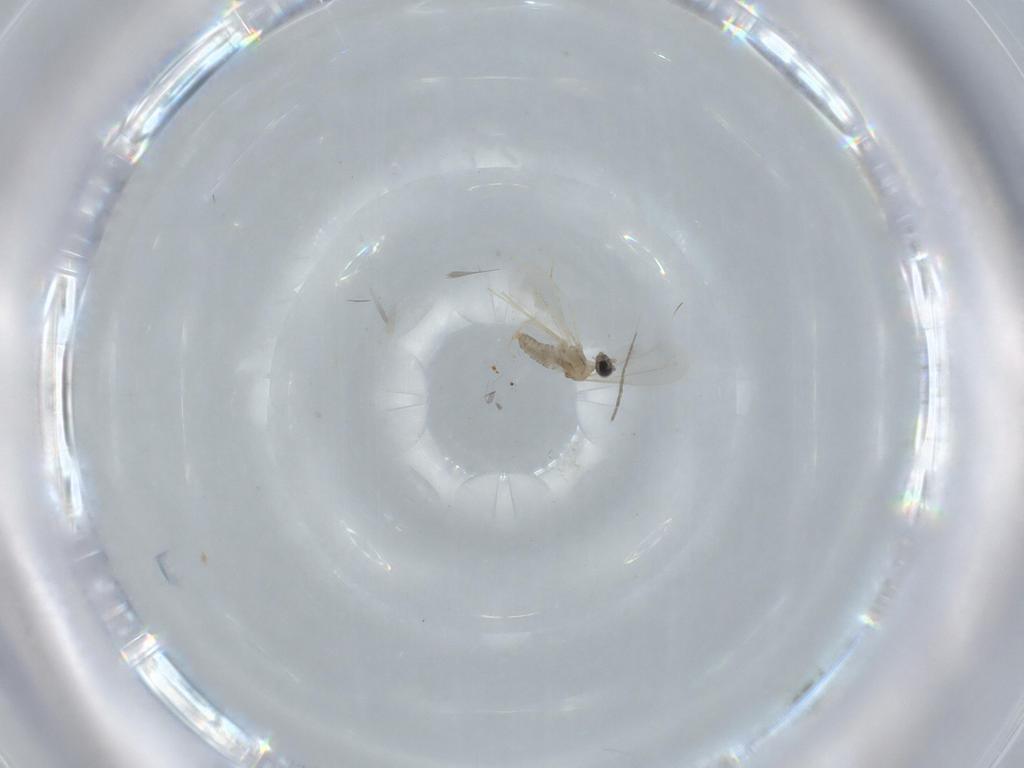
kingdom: Animalia
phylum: Arthropoda
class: Insecta
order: Diptera
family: Cecidomyiidae
